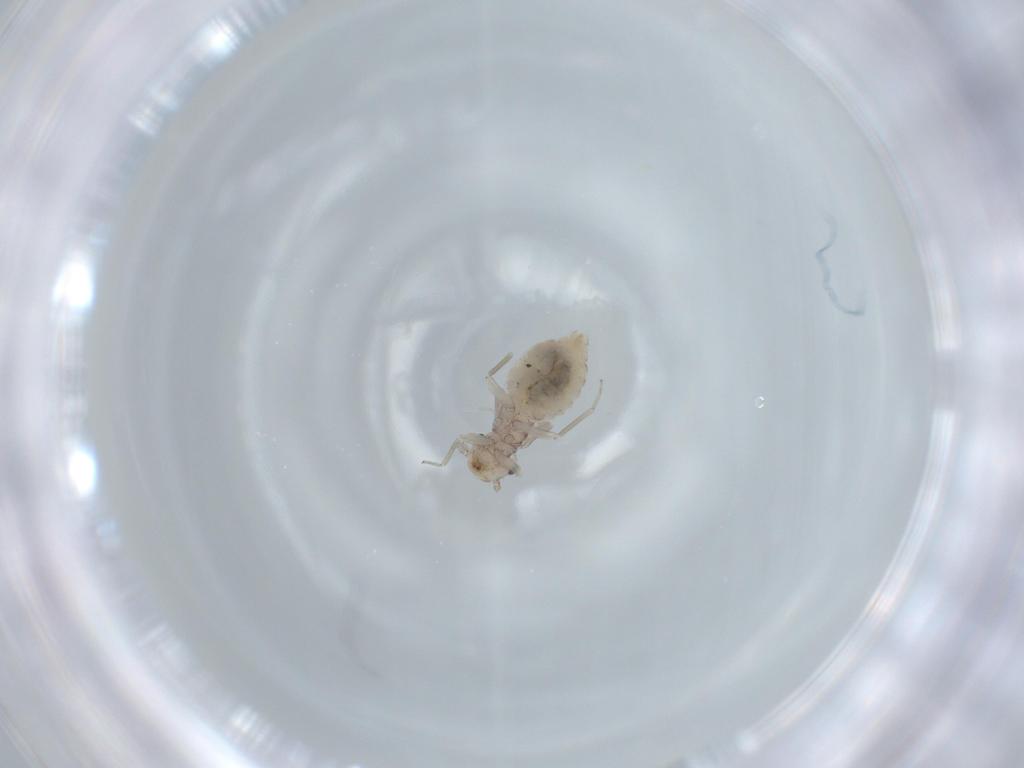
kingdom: Animalia
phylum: Arthropoda
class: Insecta
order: Psocodea
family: Caeciliusidae
